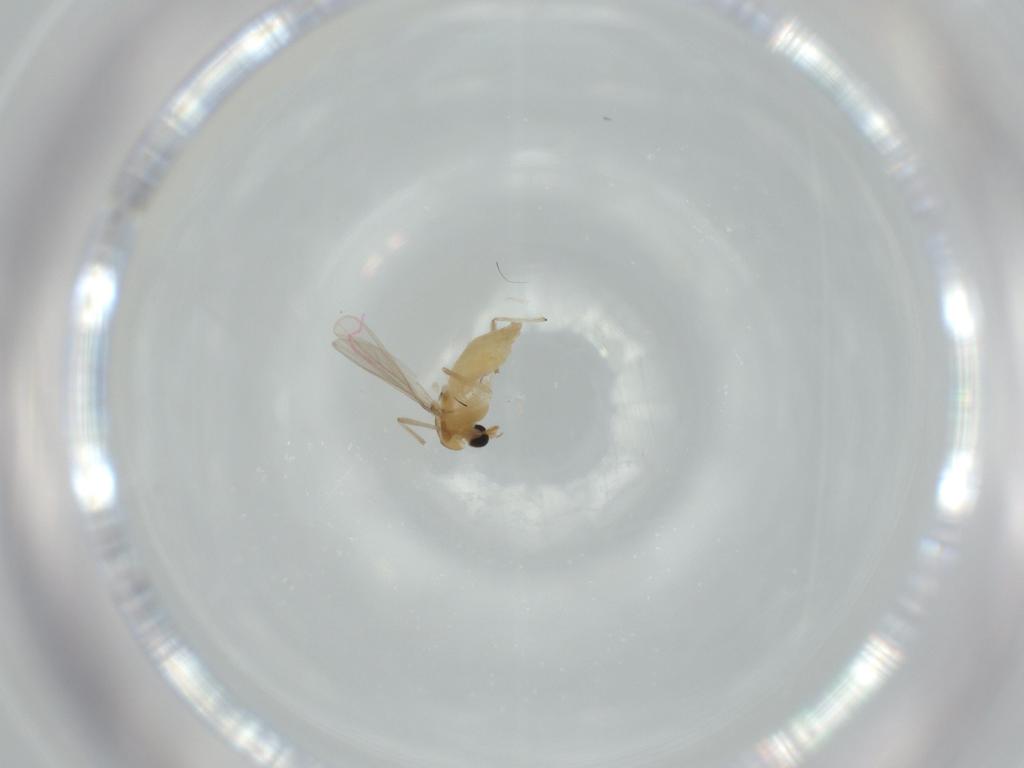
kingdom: Animalia
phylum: Arthropoda
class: Insecta
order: Diptera
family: Chironomidae
